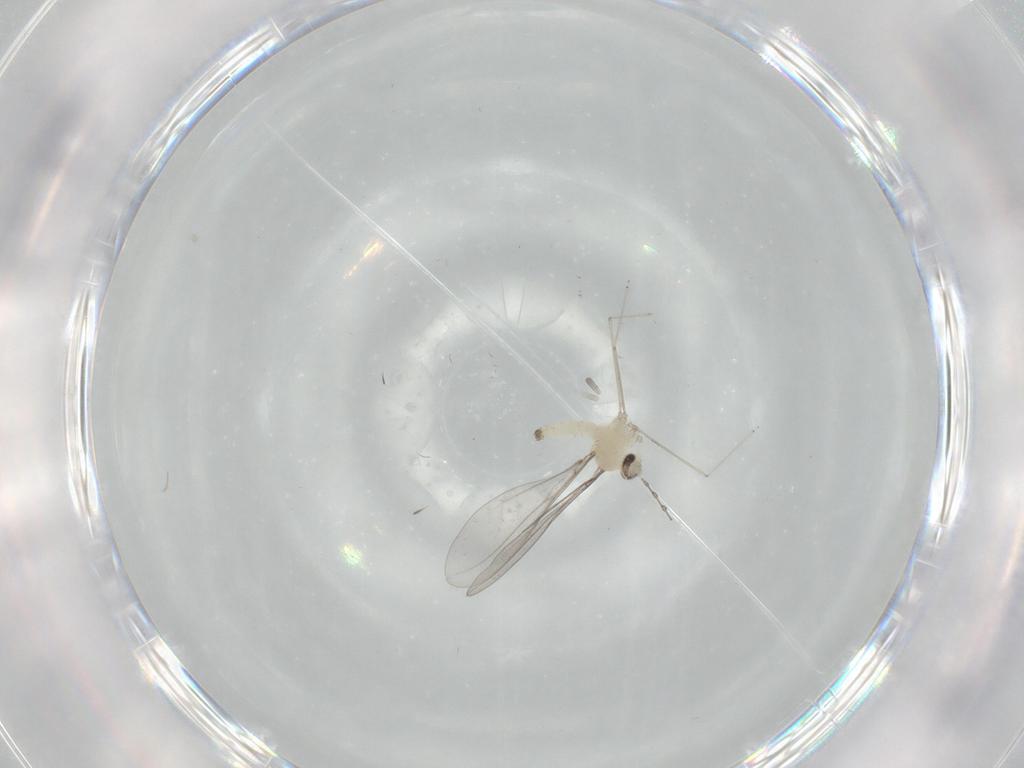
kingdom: Animalia
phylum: Arthropoda
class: Insecta
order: Diptera
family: Cecidomyiidae
